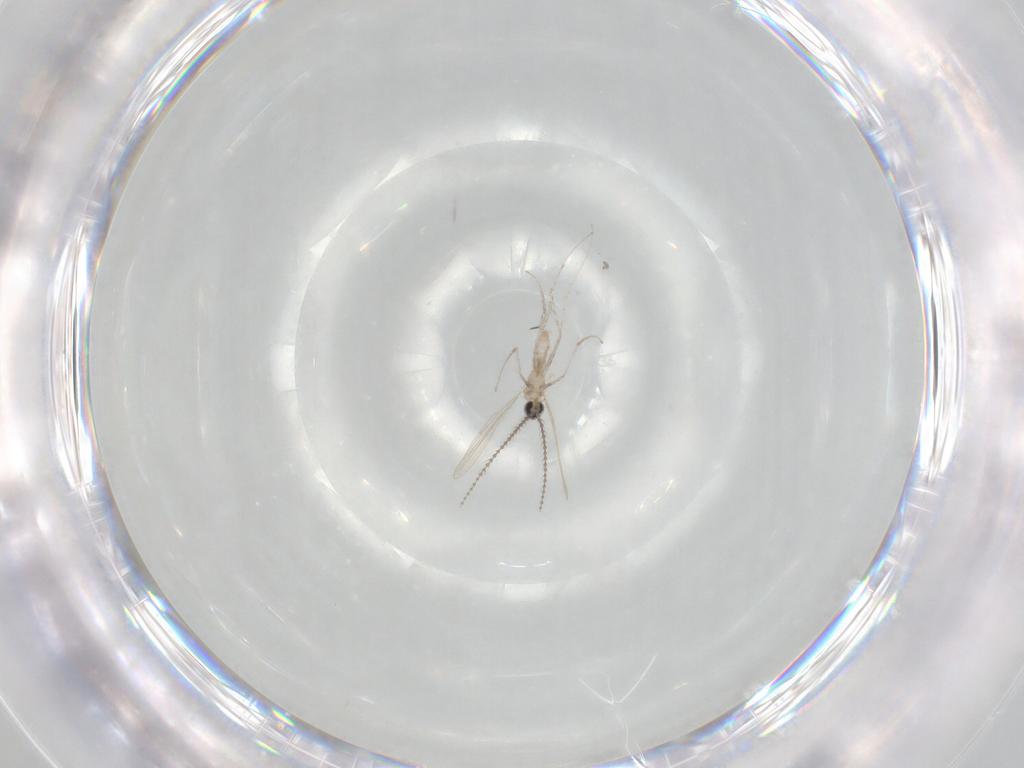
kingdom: Animalia
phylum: Arthropoda
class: Insecta
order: Diptera
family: Cecidomyiidae
